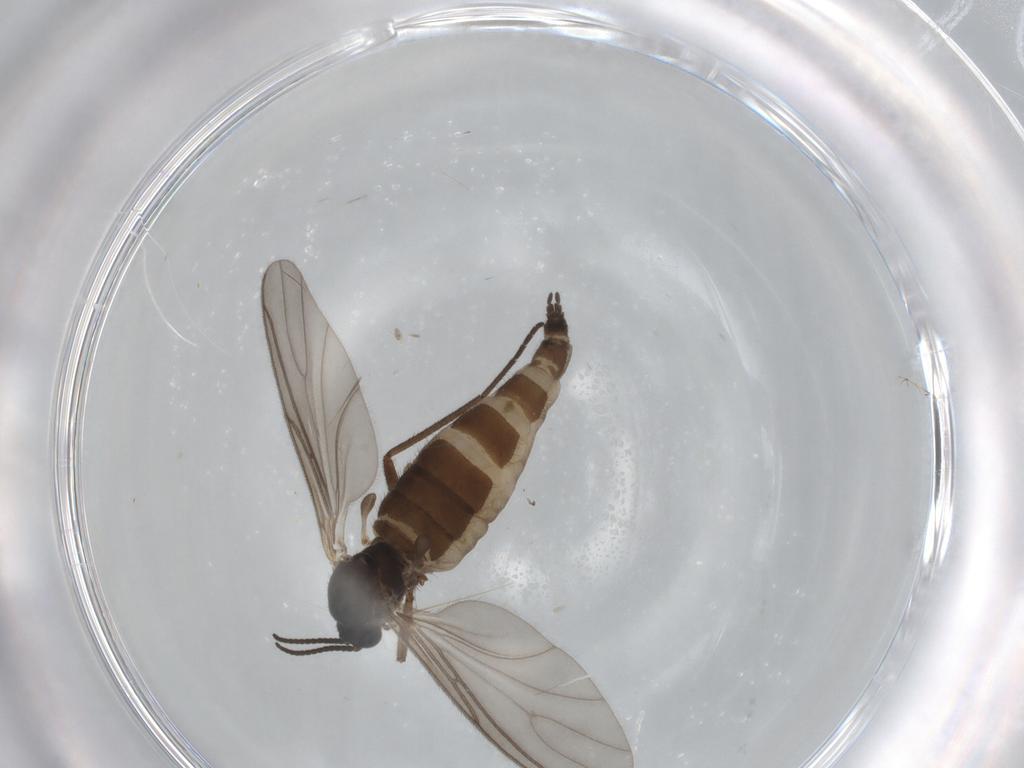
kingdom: Animalia
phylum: Arthropoda
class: Insecta
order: Diptera
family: Sciaridae
